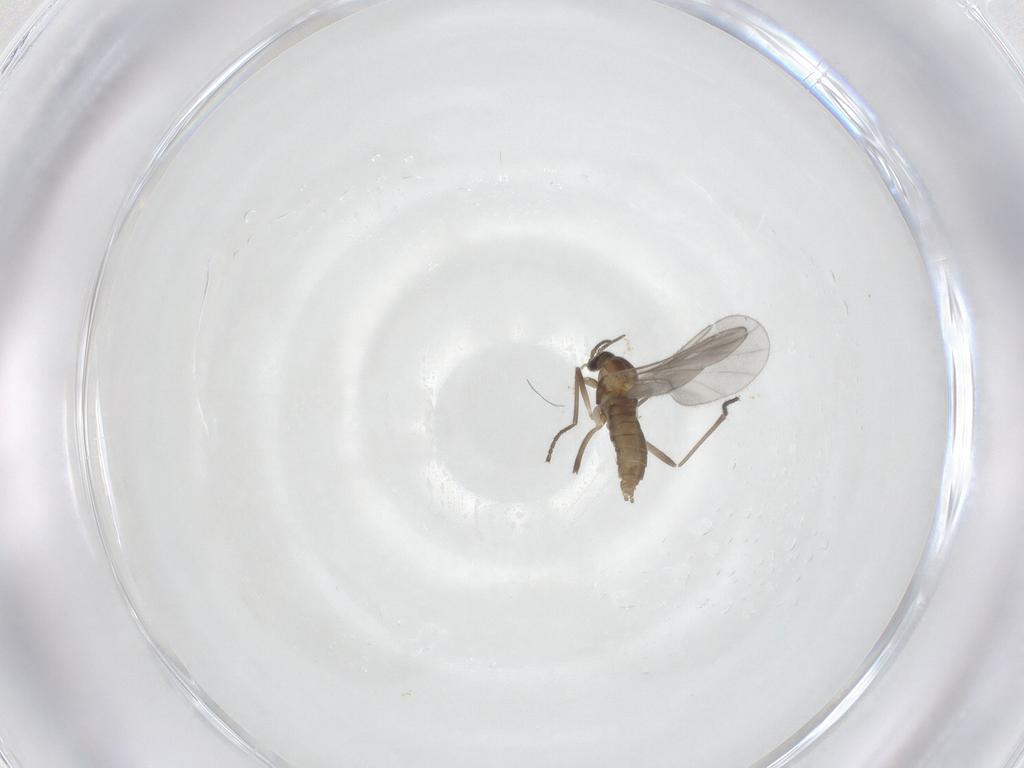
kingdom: Animalia
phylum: Arthropoda
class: Insecta
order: Diptera
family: Cecidomyiidae
